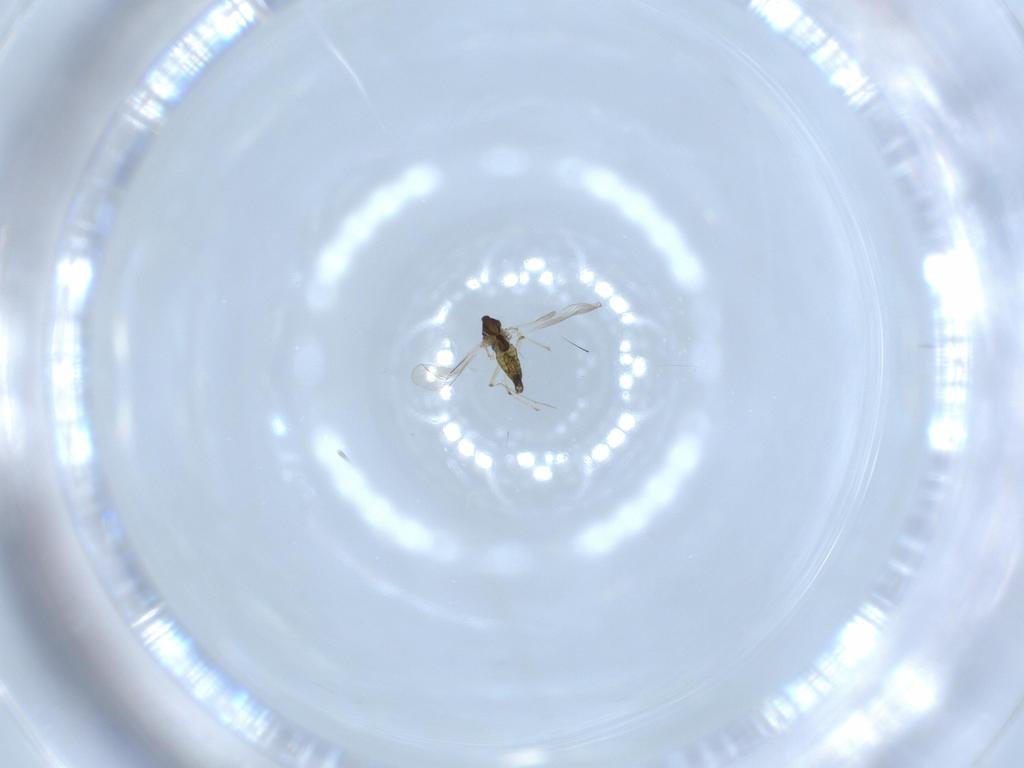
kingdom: Animalia
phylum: Arthropoda
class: Insecta
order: Diptera
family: Chironomidae
